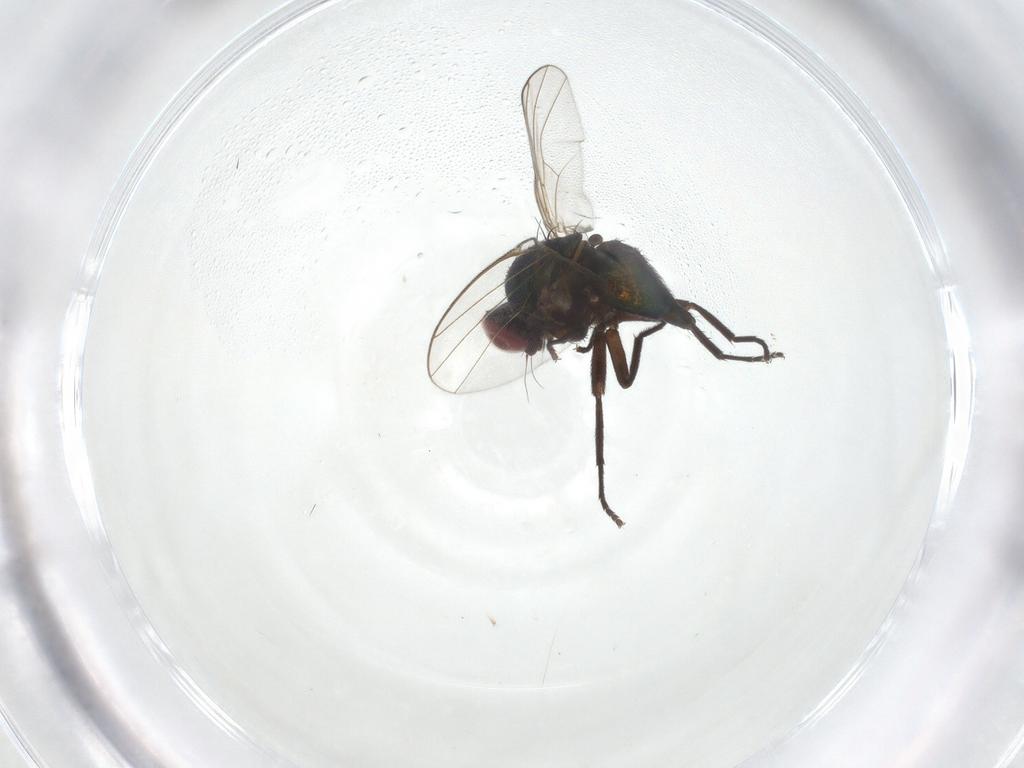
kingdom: Animalia
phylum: Arthropoda
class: Insecta
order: Diptera
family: Agromyzidae
